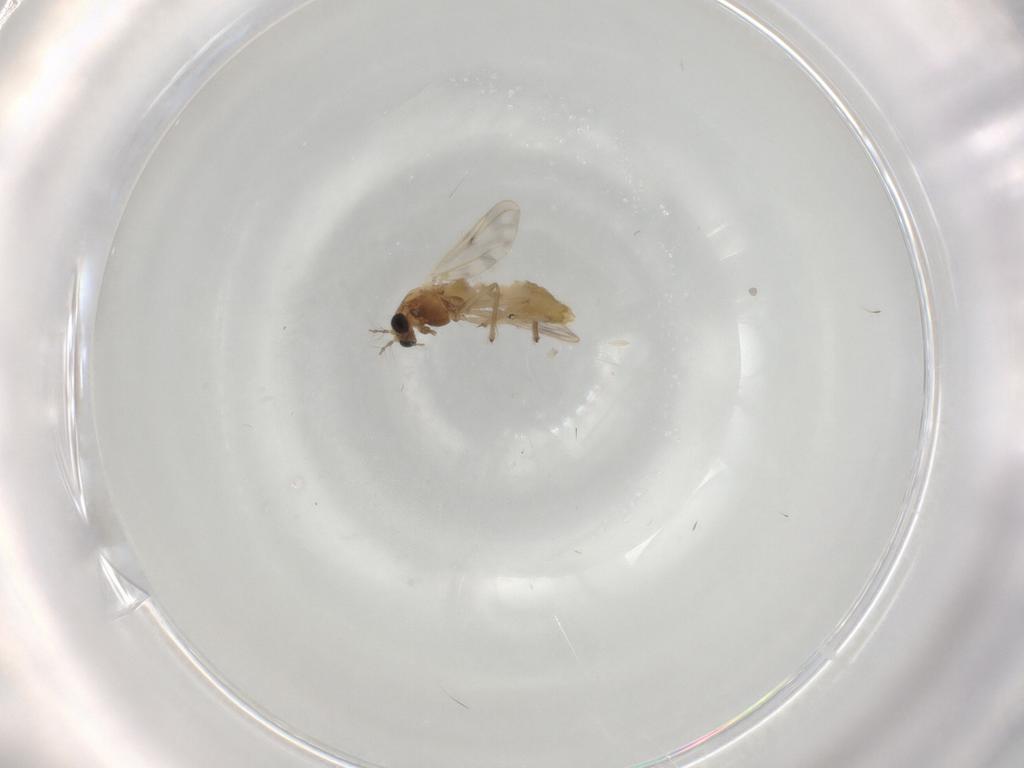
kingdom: Animalia
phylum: Arthropoda
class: Insecta
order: Diptera
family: Chironomidae
